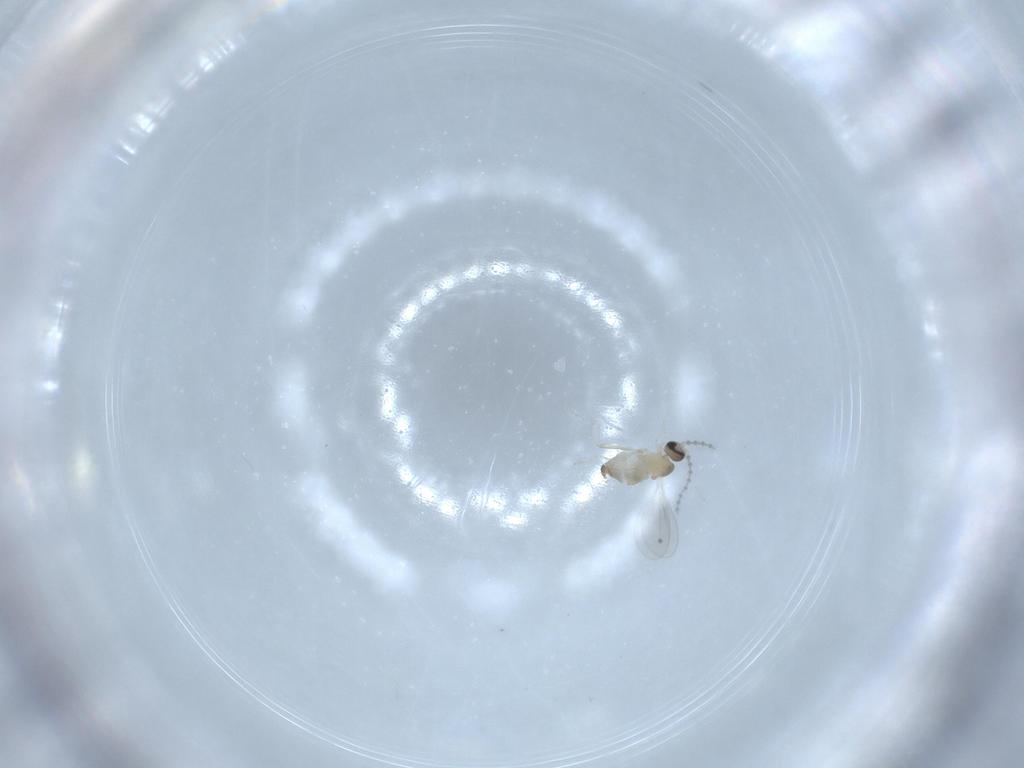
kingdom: Animalia
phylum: Arthropoda
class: Insecta
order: Diptera
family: Cecidomyiidae
